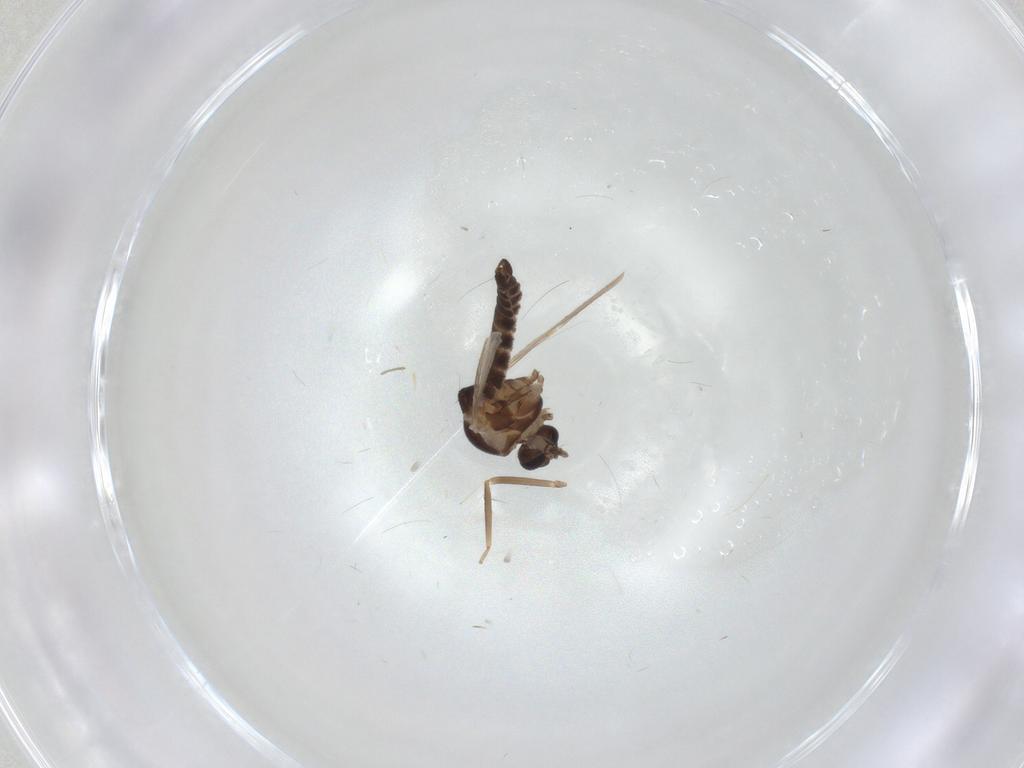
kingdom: Animalia
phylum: Arthropoda
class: Insecta
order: Diptera
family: Ceratopogonidae
